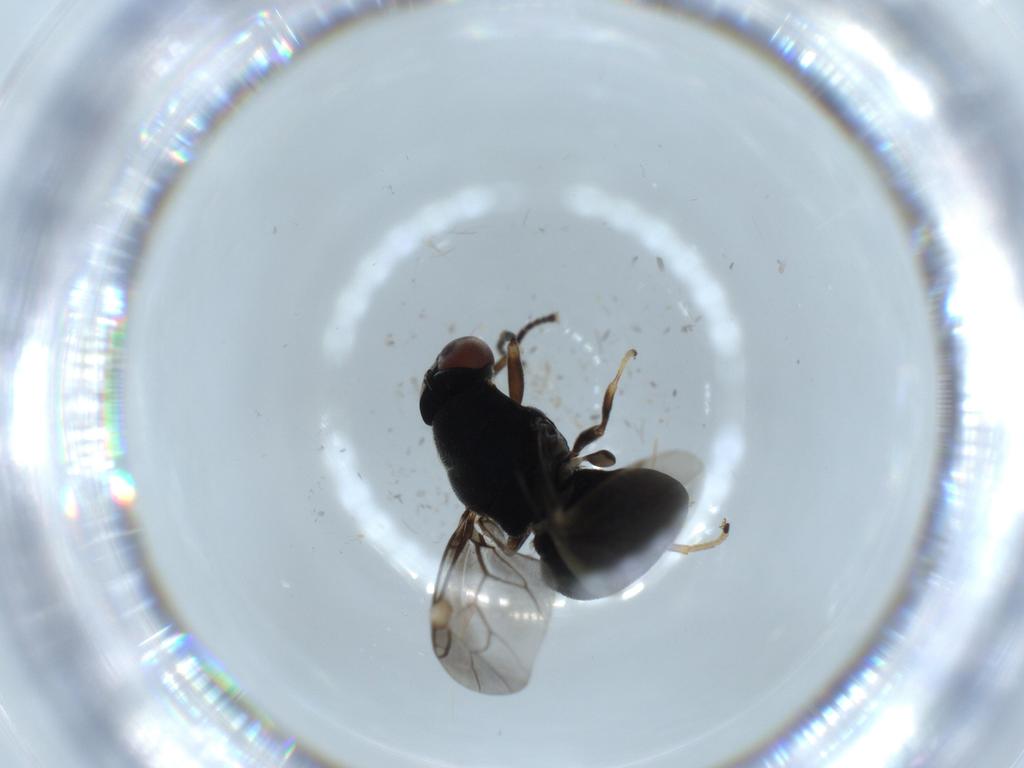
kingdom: Animalia
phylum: Arthropoda
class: Insecta
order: Diptera
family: Stratiomyidae
